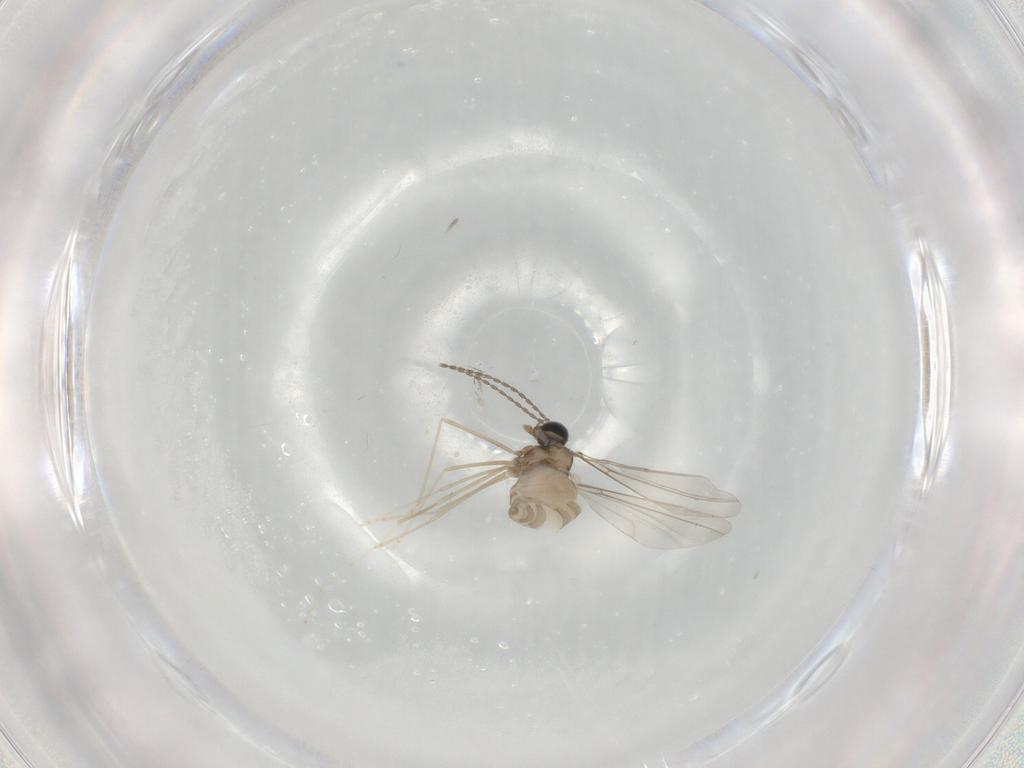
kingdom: Animalia
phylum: Arthropoda
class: Insecta
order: Diptera
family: Cecidomyiidae
